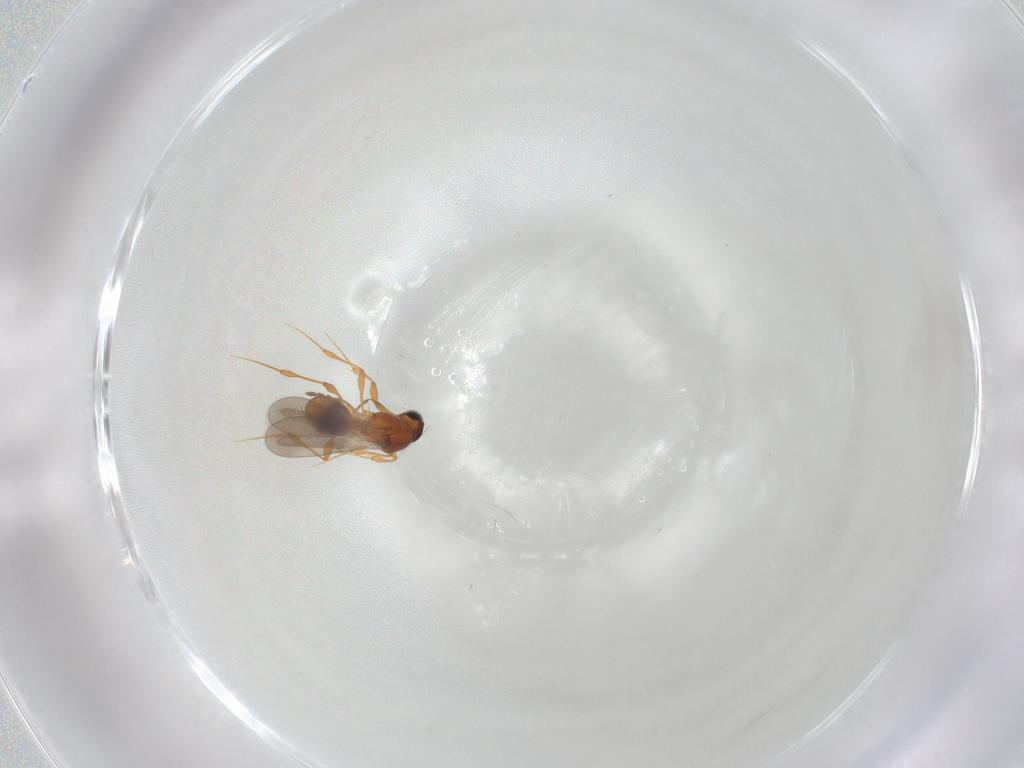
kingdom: Animalia
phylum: Arthropoda
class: Insecta
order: Hymenoptera
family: Platygastridae
